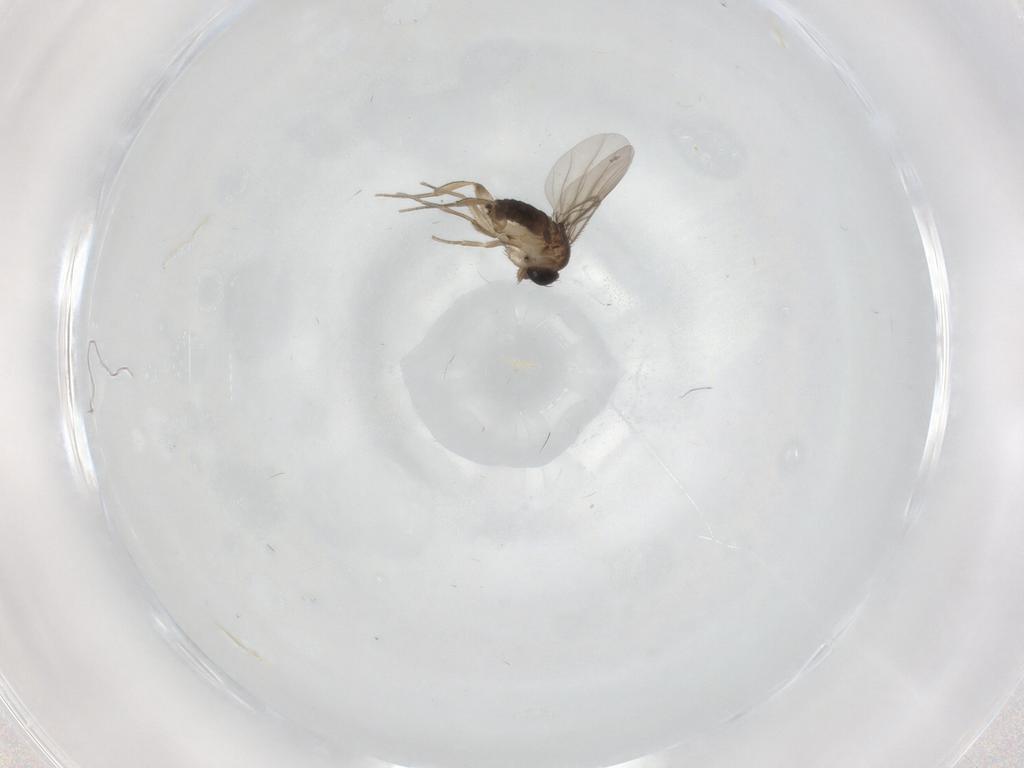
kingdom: Animalia
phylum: Arthropoda
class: Insecta
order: Diptera
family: Phoridae
